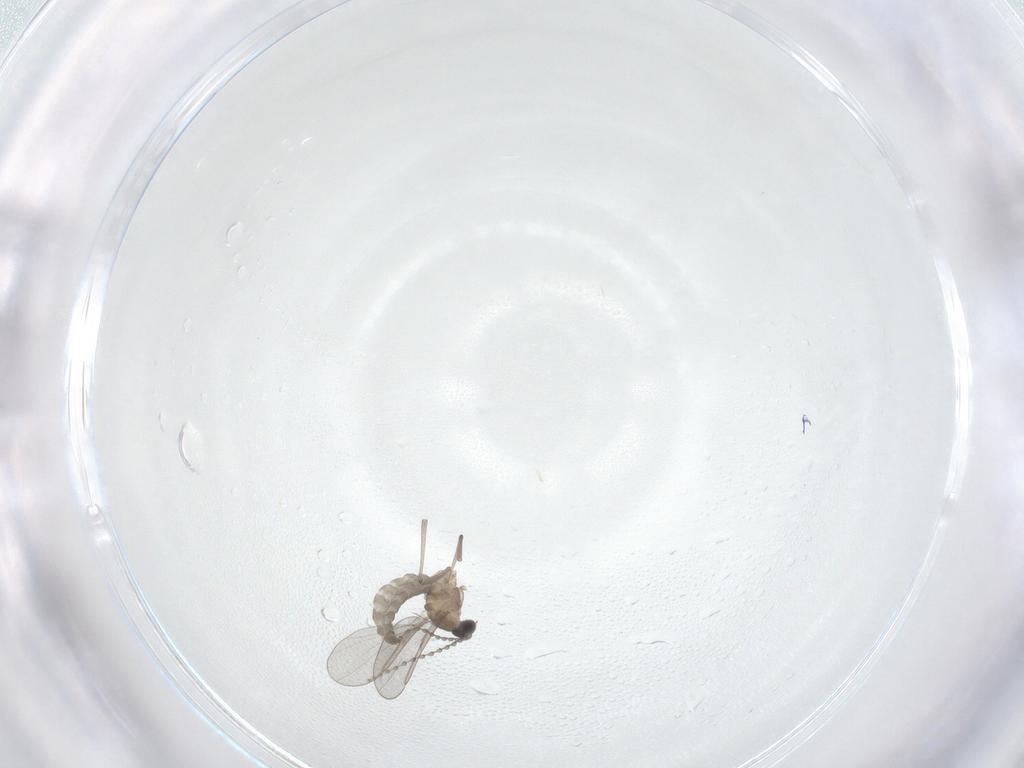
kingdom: Animalia
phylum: Arthropoda
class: Insecta
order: Diptera
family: Cecidomyiidae
